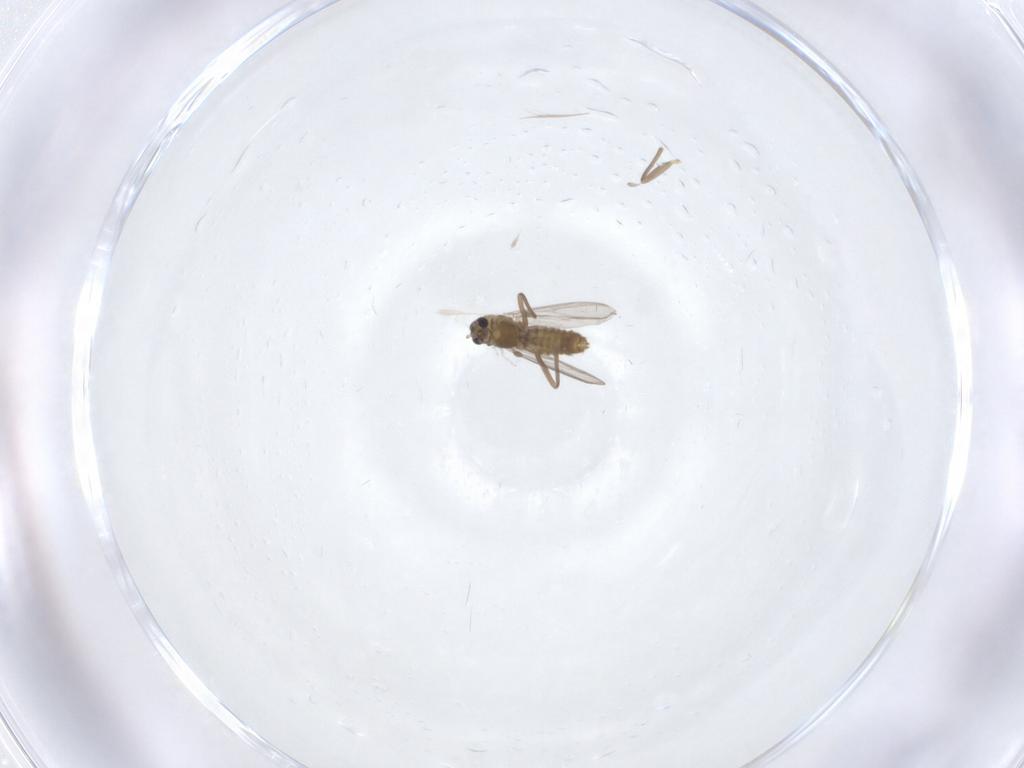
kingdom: Animalia
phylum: Arthropoda
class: Insecta
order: Diptera
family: Chironomidae
